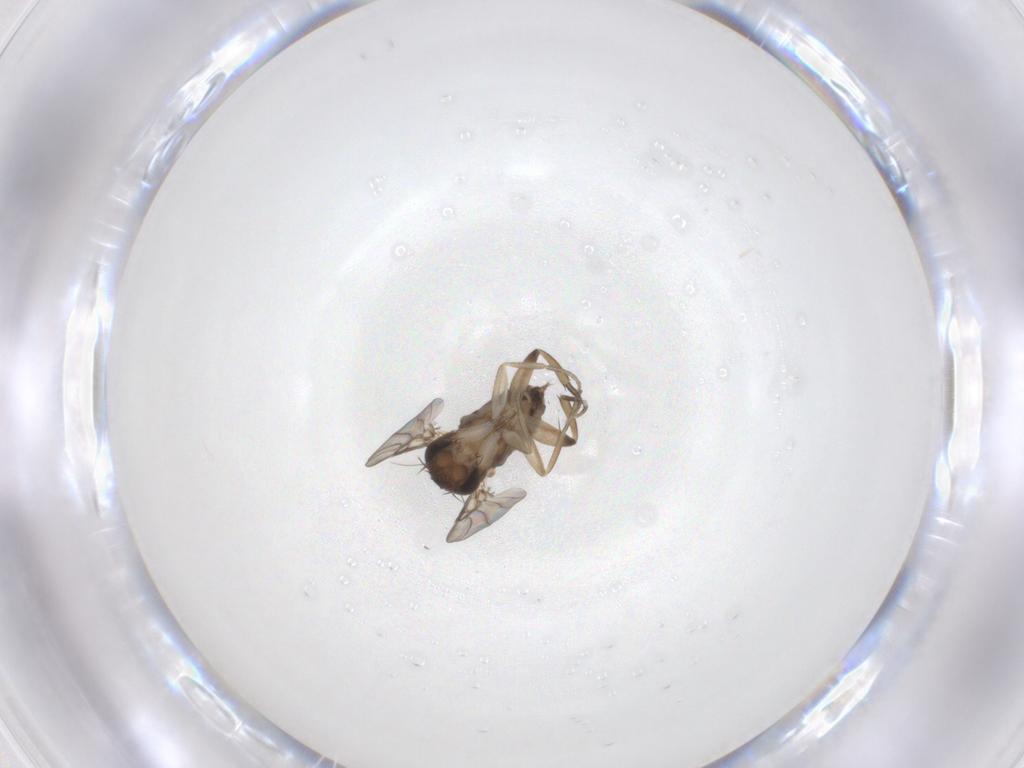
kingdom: Animalia
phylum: Arthropoda
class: Insecta
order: Diptera
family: Phoridae
